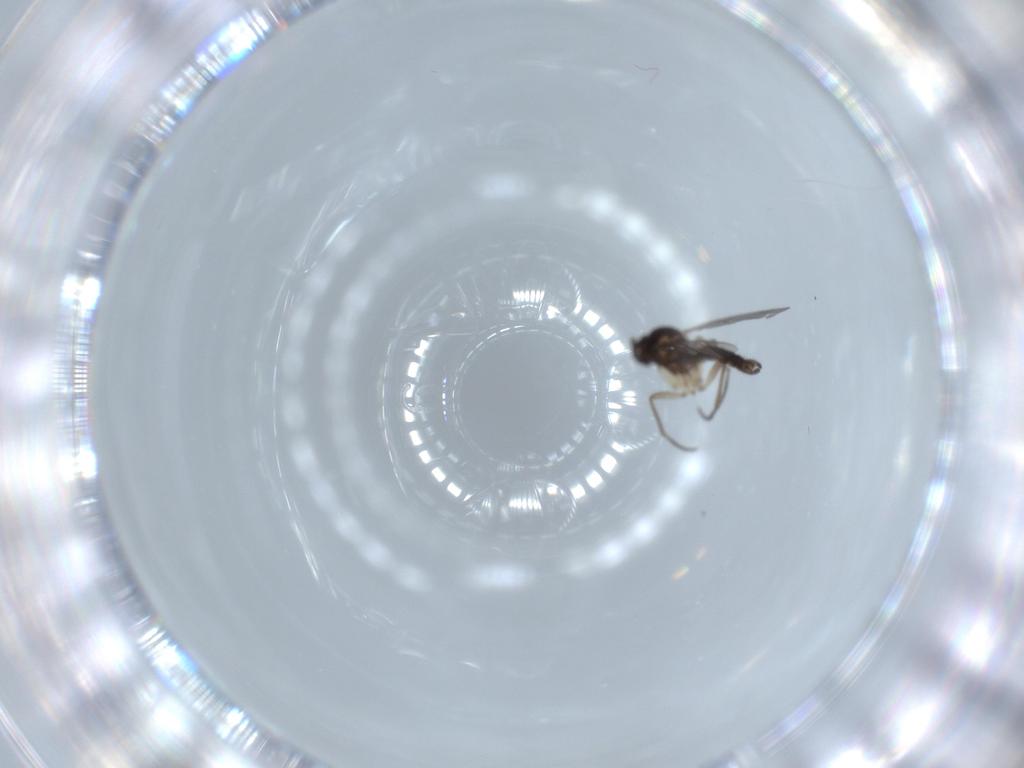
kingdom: Animalia
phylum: Arthropoda
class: Insecta
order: Diptera
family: Sciaridae
